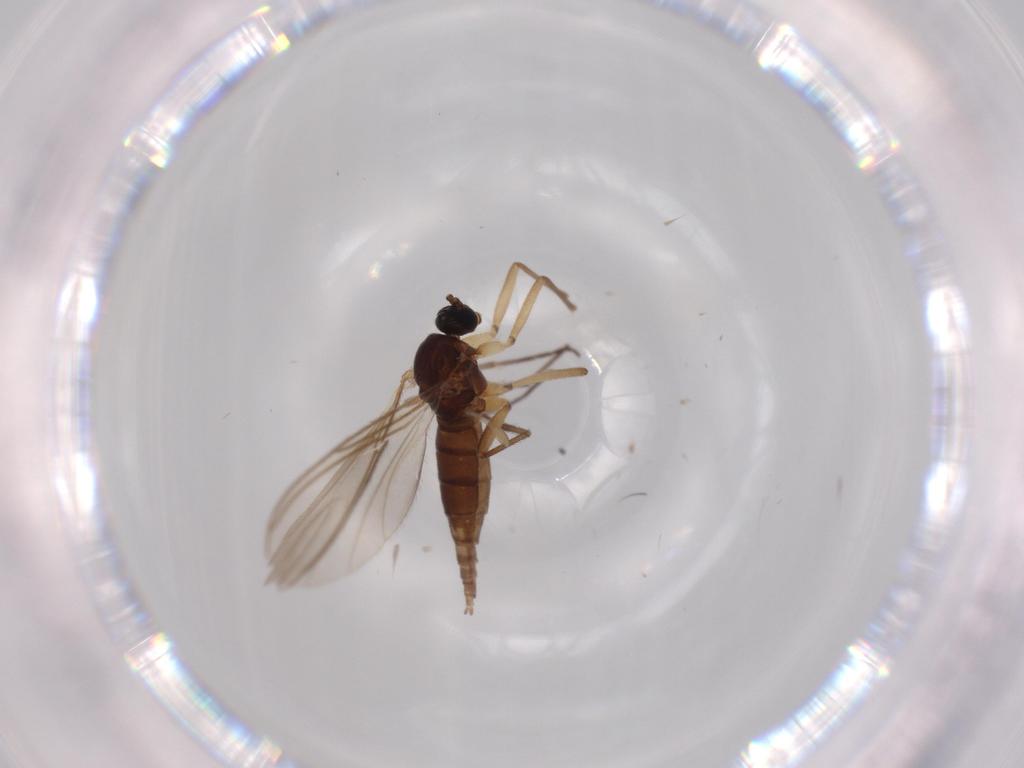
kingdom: Animalia
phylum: Arthropoda
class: Insecta
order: Diptera
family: Sciaridae
